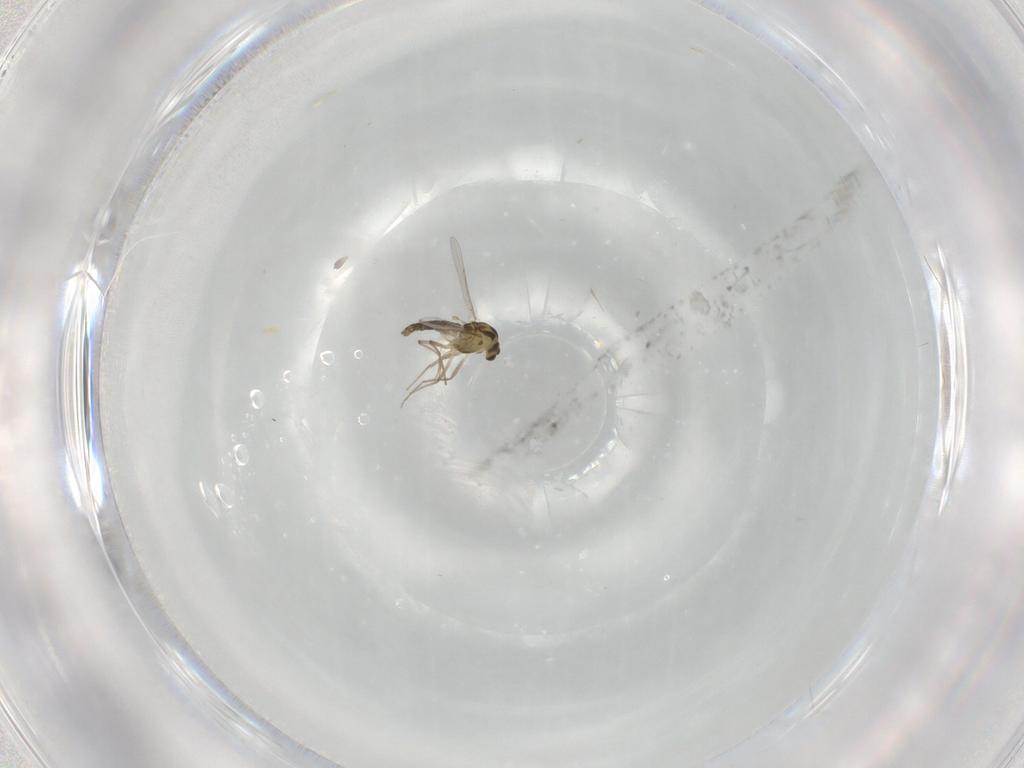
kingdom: Animalia
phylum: Arthropoda
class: Insecta
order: Diptera
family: Chironomidae
